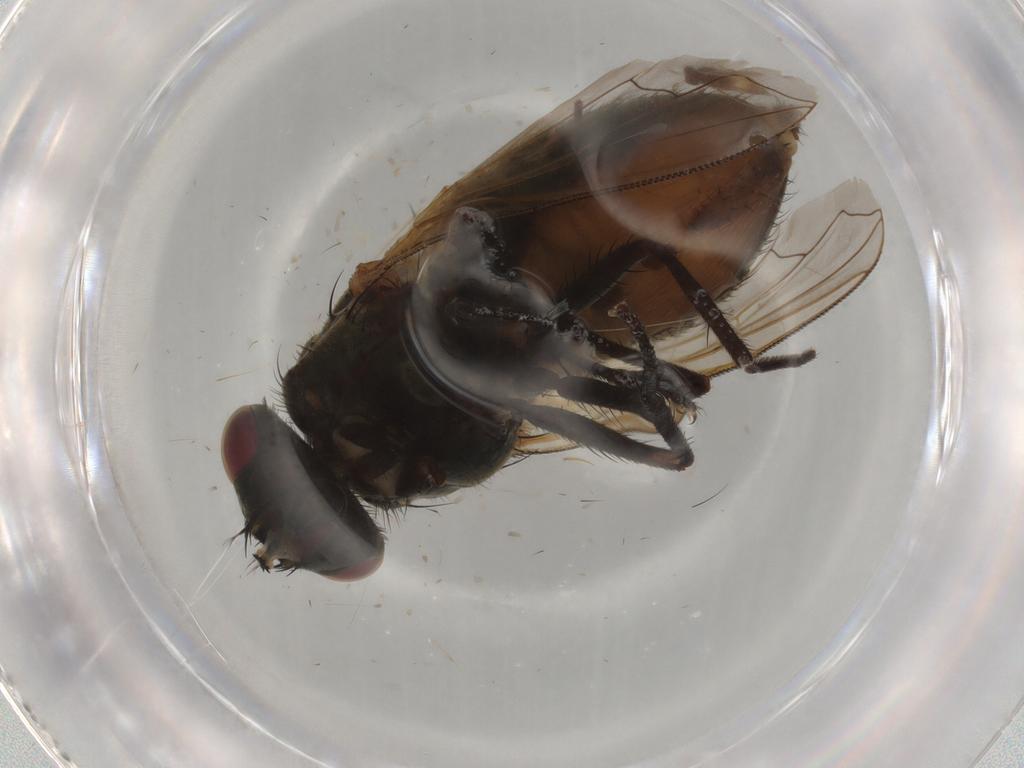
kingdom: Animalia
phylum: Arthropoda
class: Insecta
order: Diptera
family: Muscidae
